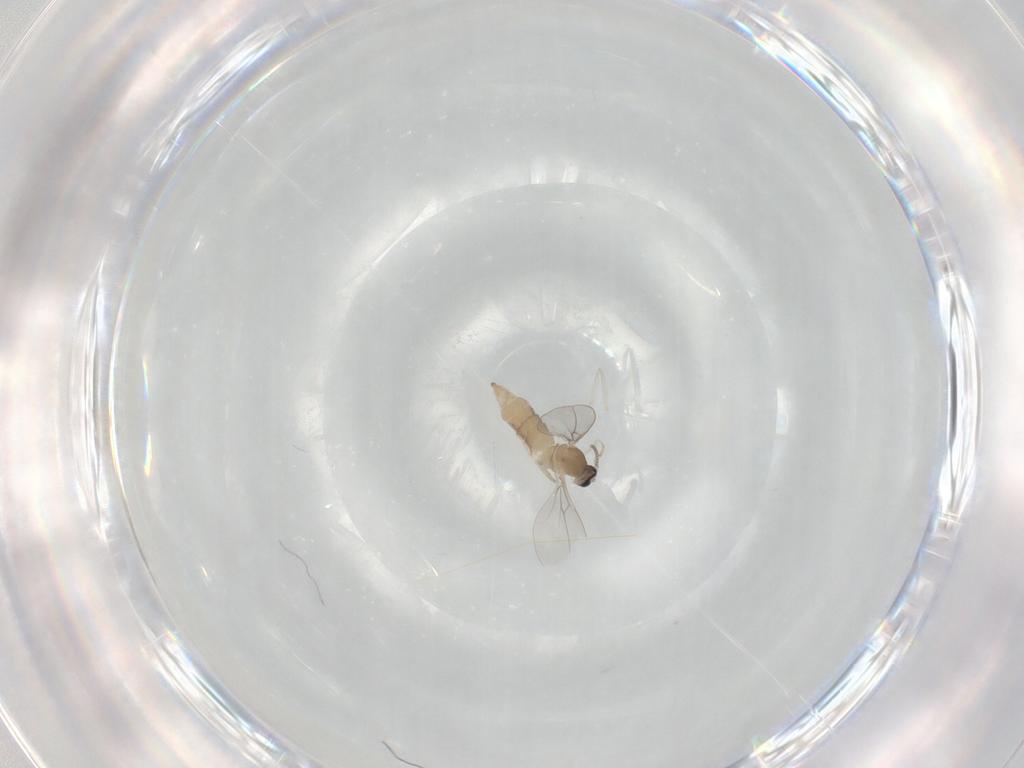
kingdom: Animalia
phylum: Arthropoda
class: Insecta
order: Diptera
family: Cecidomyiidae
